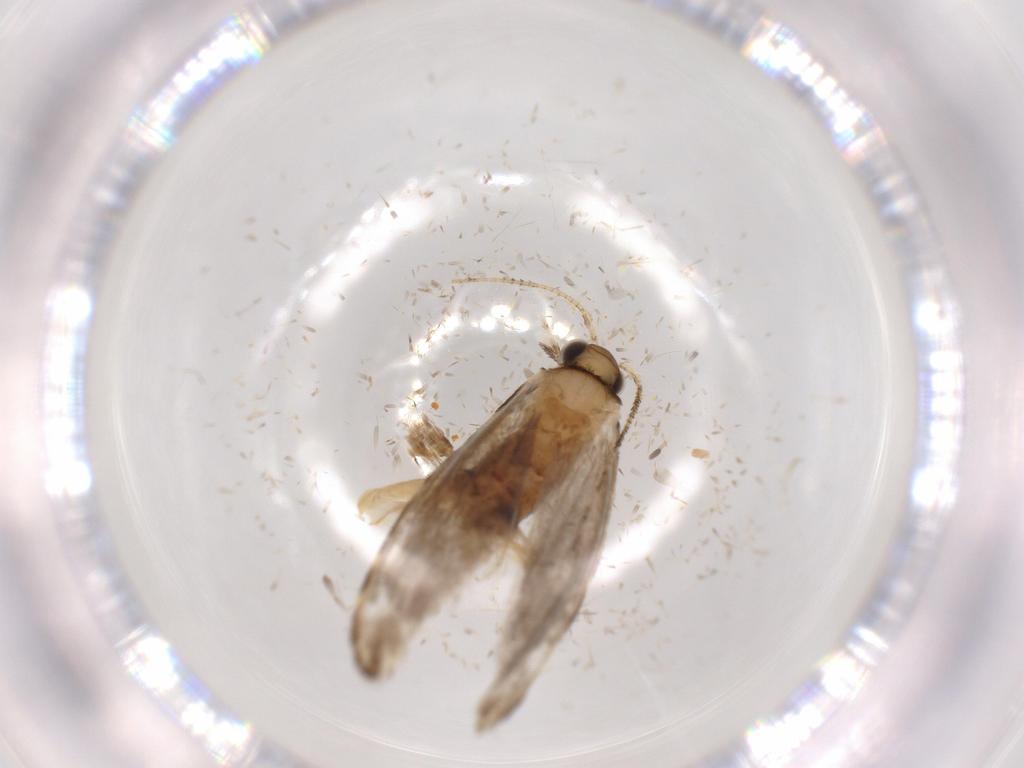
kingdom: Animalia
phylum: Arthropoda
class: Insecta
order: Lepidoptera
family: Tineidae
